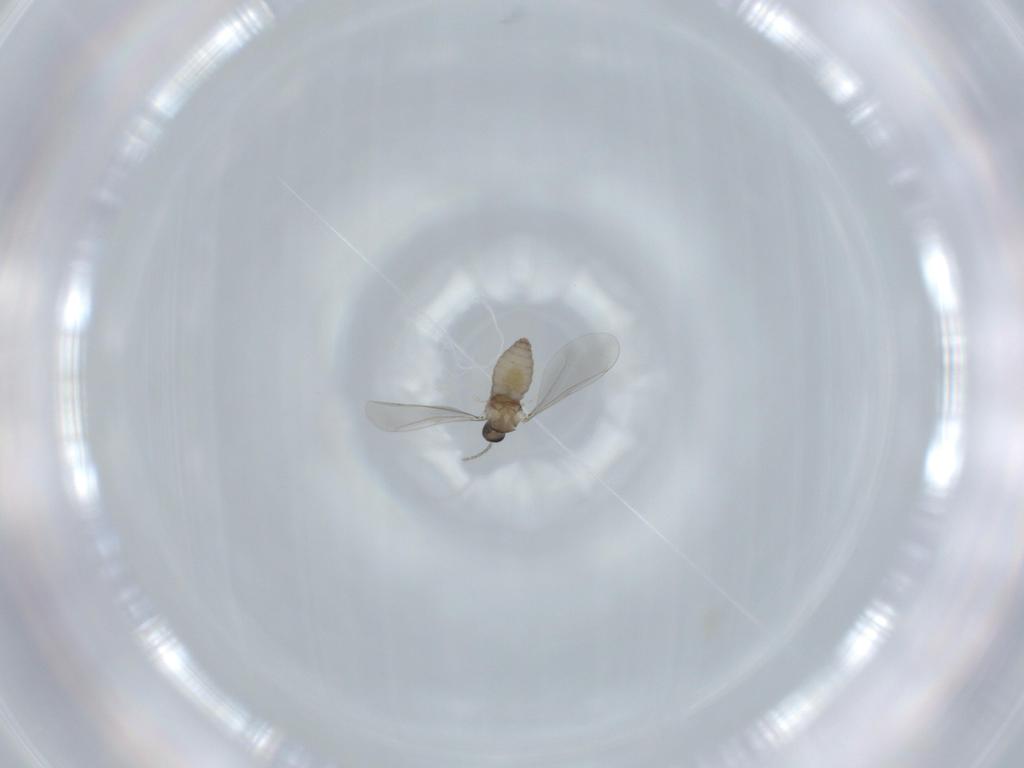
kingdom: Animalia
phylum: Arthropoda
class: Insecta
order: Diptera
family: Cecidomyiidae
